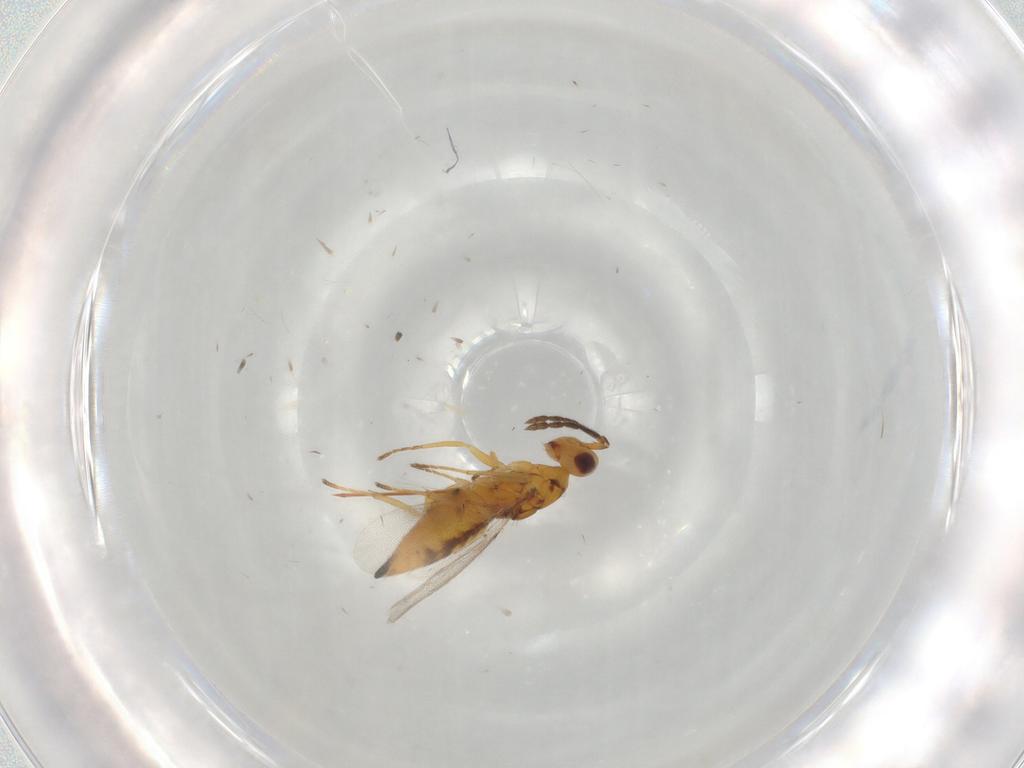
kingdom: Animalia
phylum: Arthropoda
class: Insecta
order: Hymenoptera
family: Eulophidae
